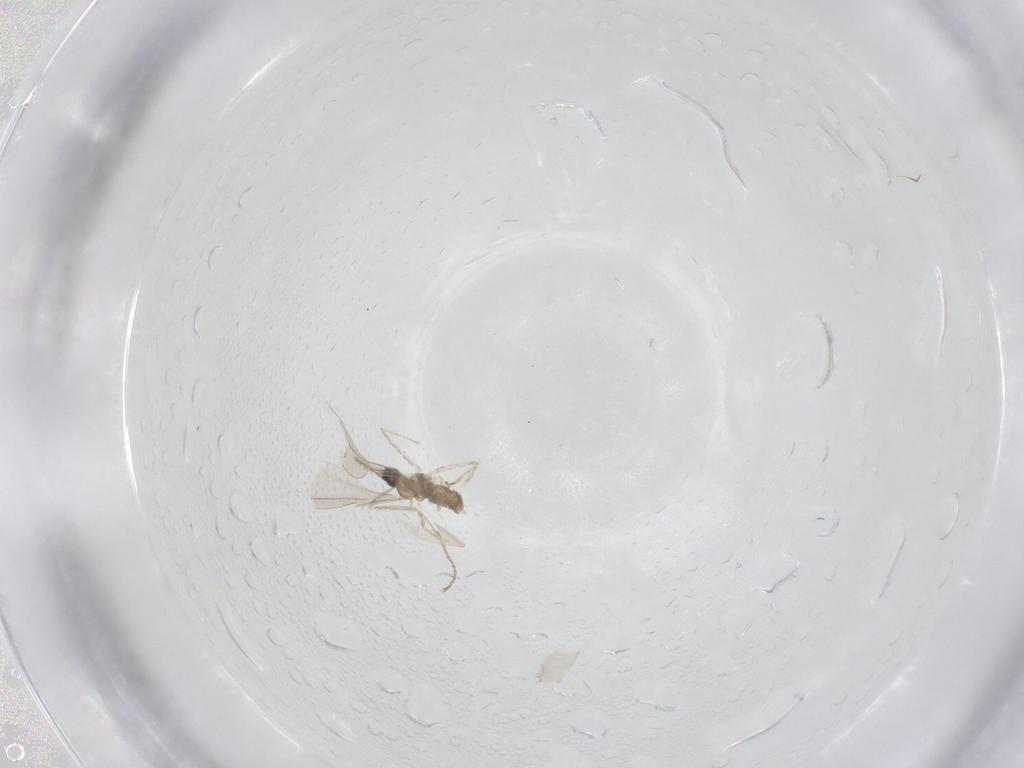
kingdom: Animalia
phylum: Arthropoda
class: Insecta
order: Diptera
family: Cecidomyiidae
